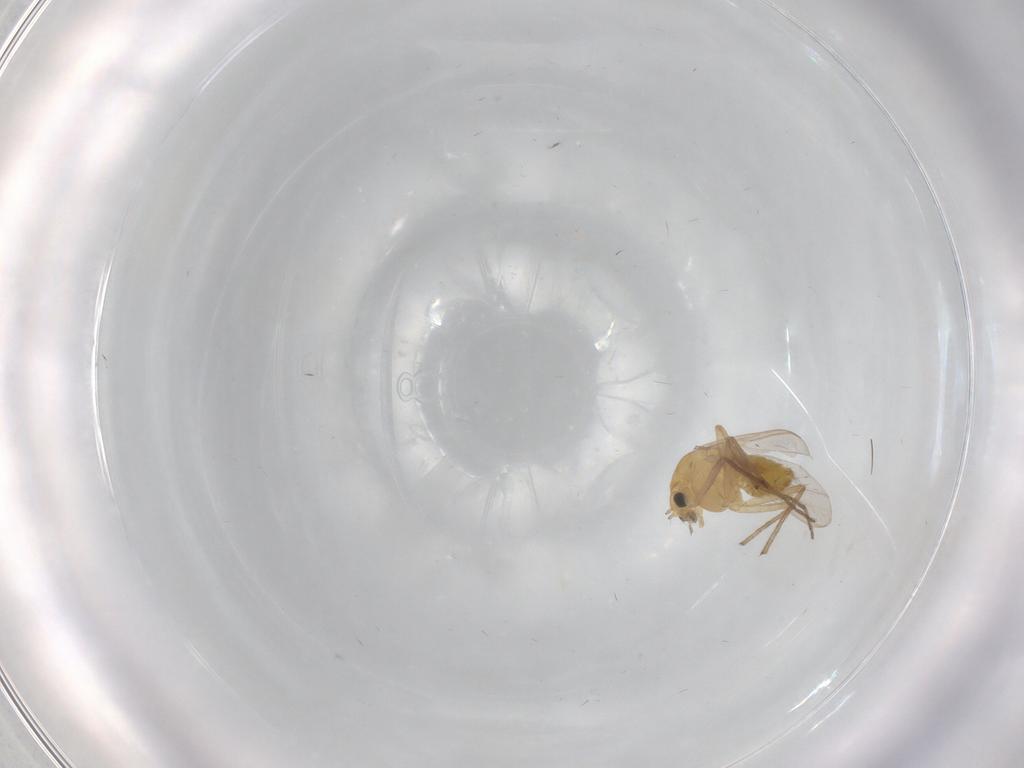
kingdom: Animalia
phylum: Arthropoda
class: Insecta
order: Diptera
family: Chironomidae
